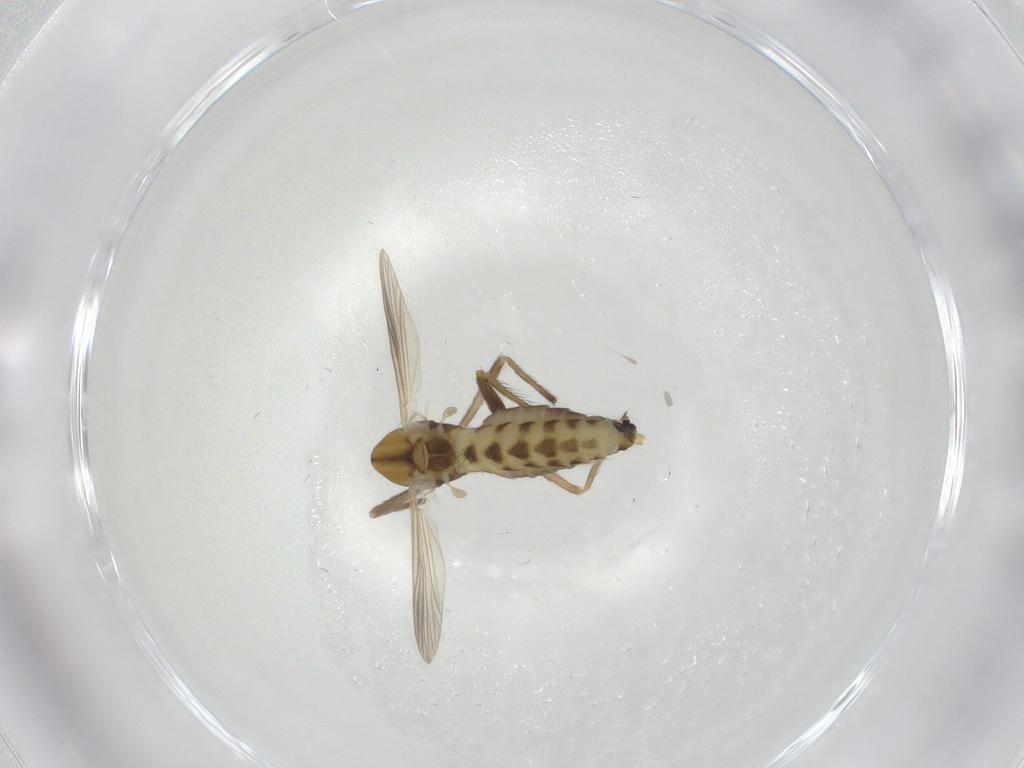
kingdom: Animalia
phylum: Arthropoda
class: Insecta
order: Diptera
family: Chironomidae
